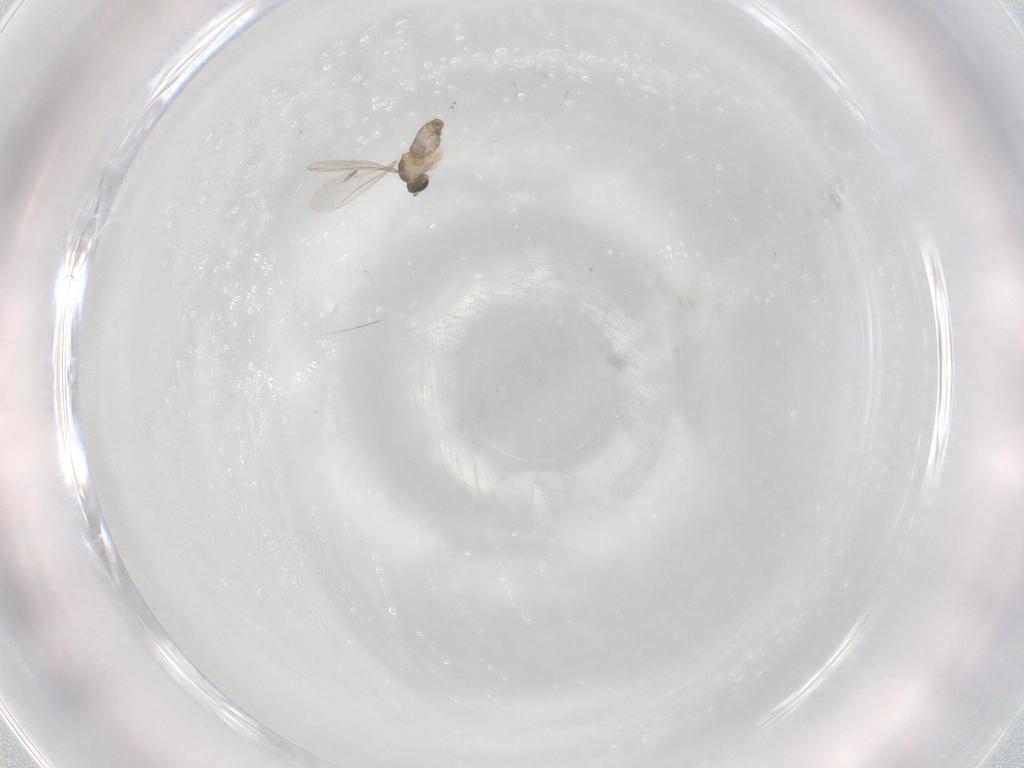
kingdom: Animalia
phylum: Arthropoda
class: Insecta
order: Diptera
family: Cecidomyiidae
